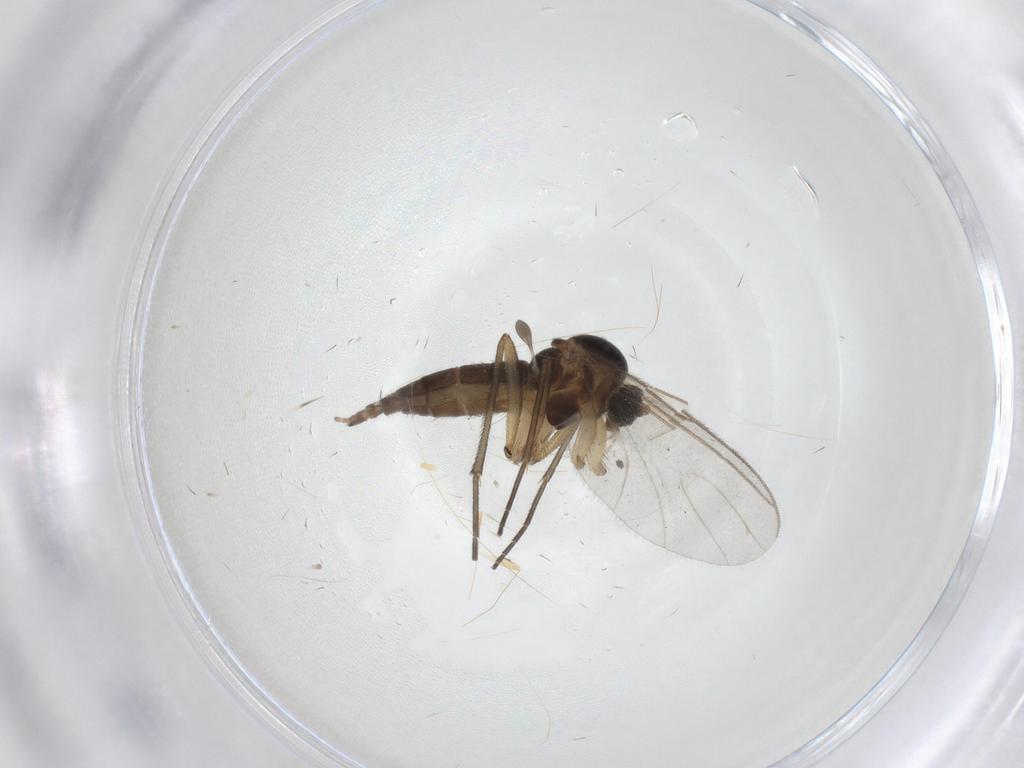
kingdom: Animalia
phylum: Arthropoda
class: Insecta
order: Diptera
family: Sciaridae
